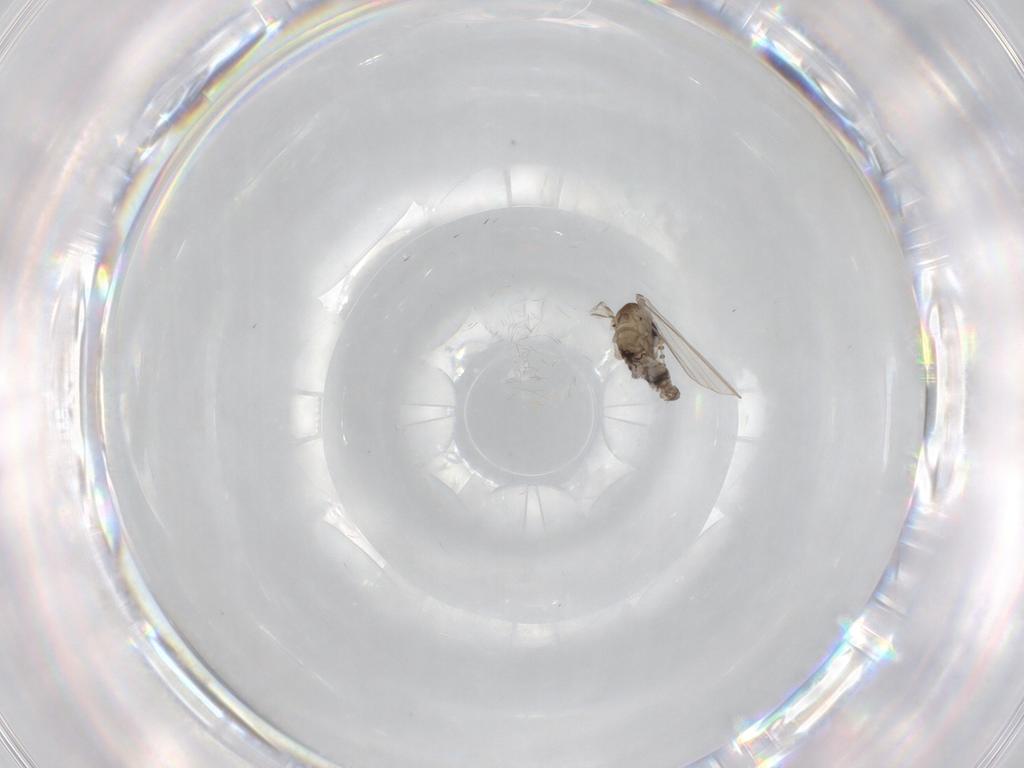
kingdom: Animalia
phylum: Arthropoda
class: Insecta
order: Diptera
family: Psychodidae
